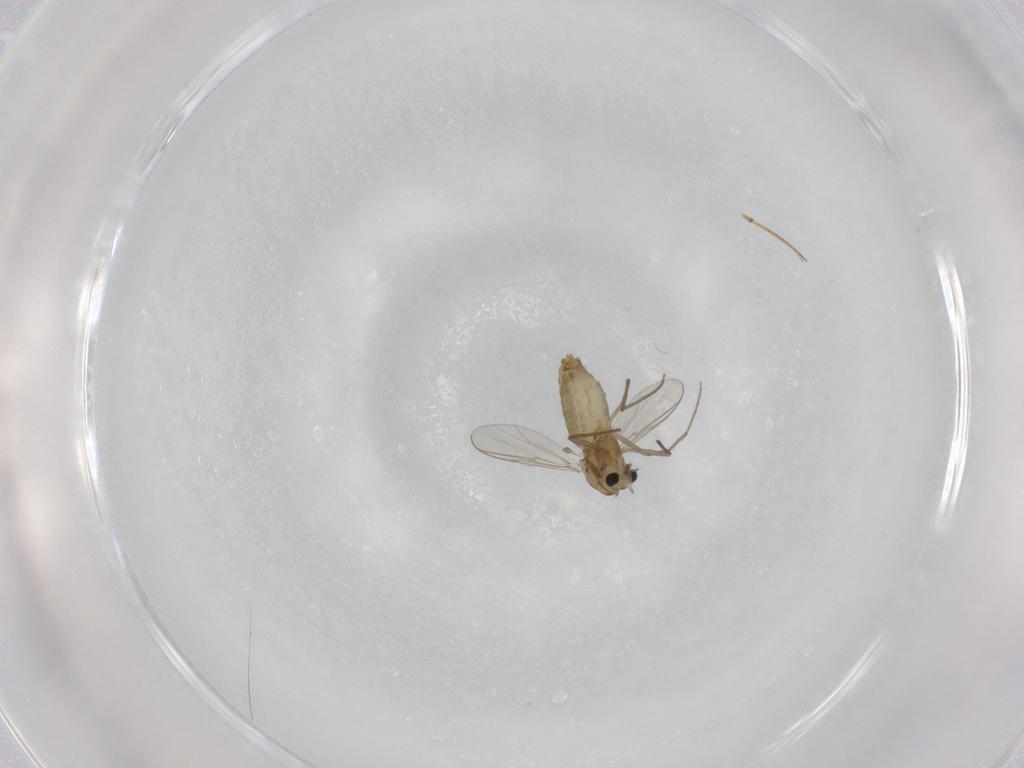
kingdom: Animalia
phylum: Arthropoda
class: Insecta
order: Diptera
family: Chironomidae
